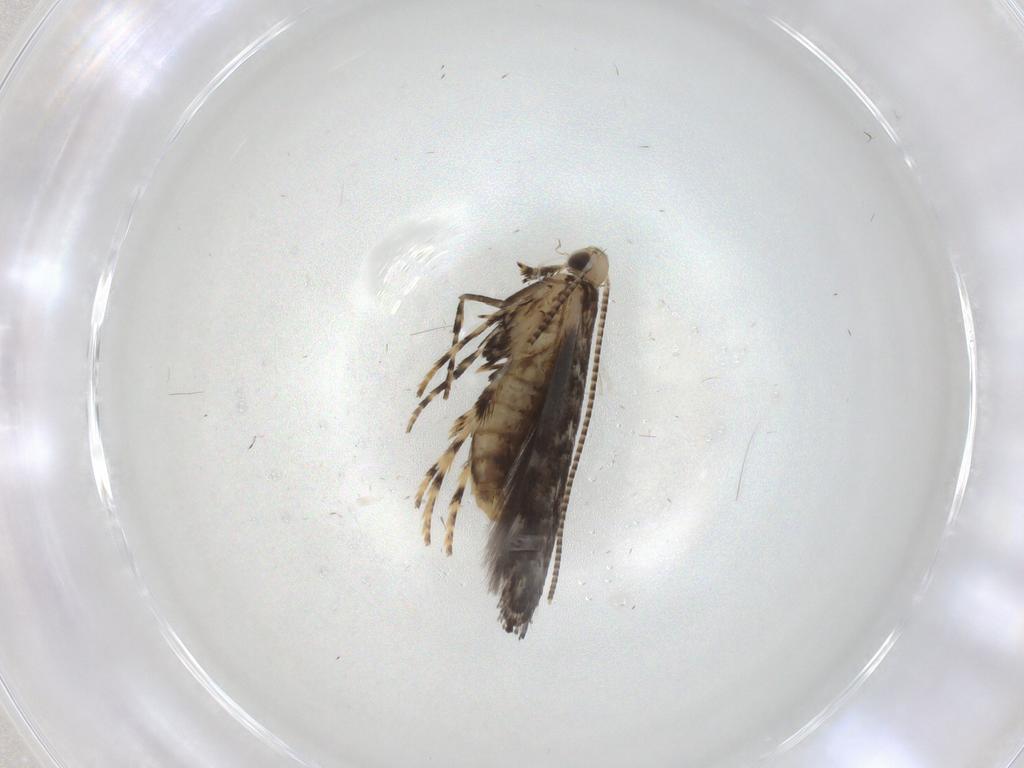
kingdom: Animalia
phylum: Arthropoda
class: Insecta
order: Lepidoptera
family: Gracillariidae
